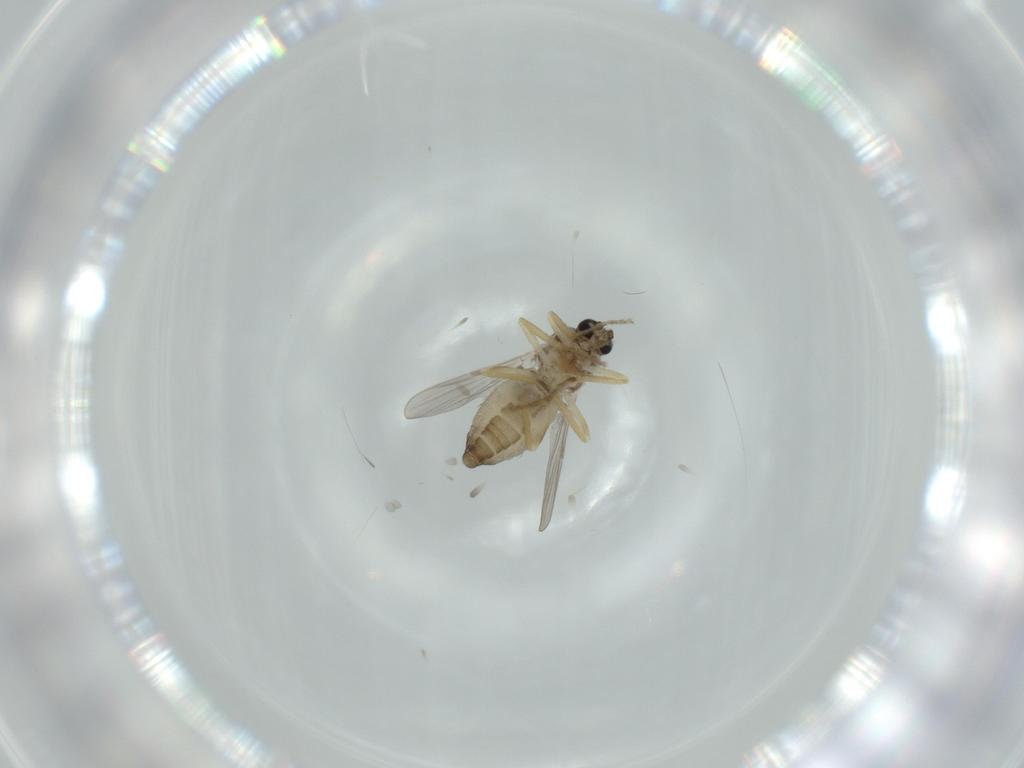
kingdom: Animalia
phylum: Arthropoda
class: Insecta
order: Diptera
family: Ceratopogonidae
